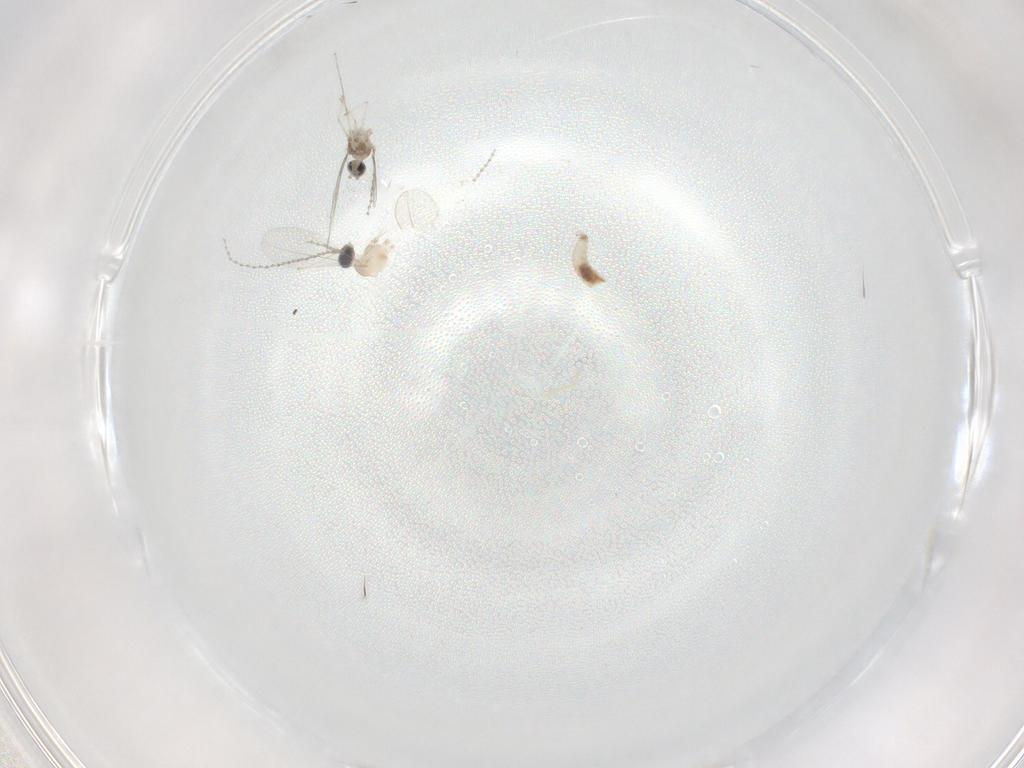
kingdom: Animalia
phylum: Arthropoda
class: Insecta
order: Diptera
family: Cecidomyiidae
